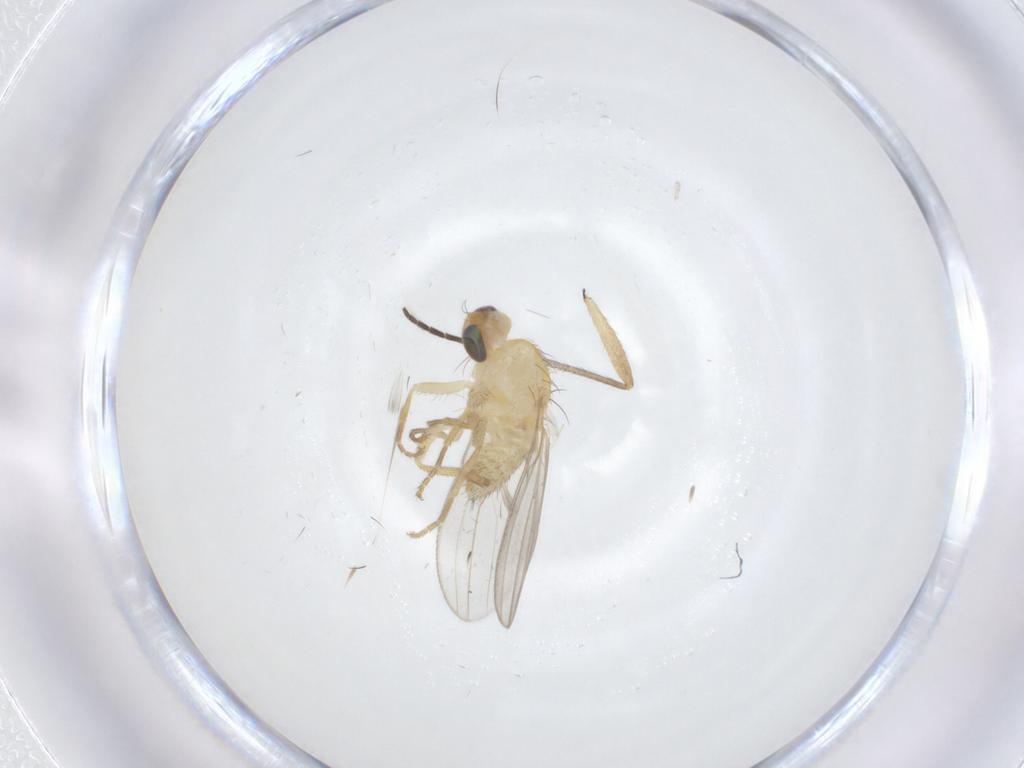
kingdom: Animalia
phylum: Arthropoda
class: Insecta
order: Diptera
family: Chyromyidae
